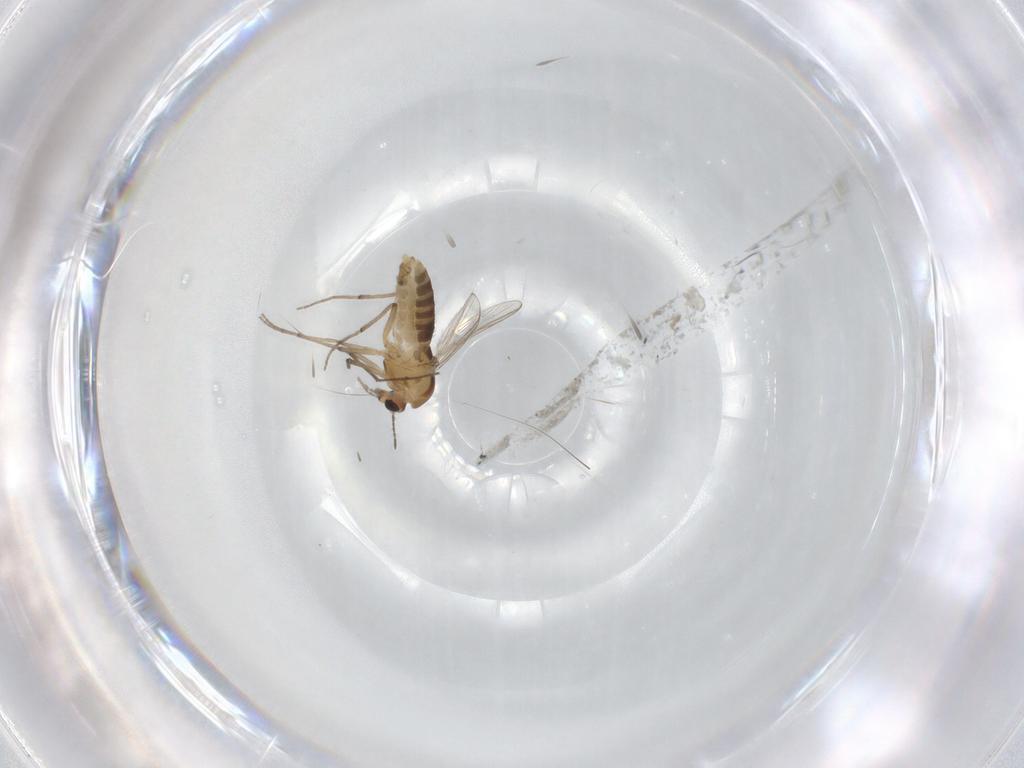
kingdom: Animalia
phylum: Arthropoda
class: Insecta
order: Diptera
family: Chironomidae
